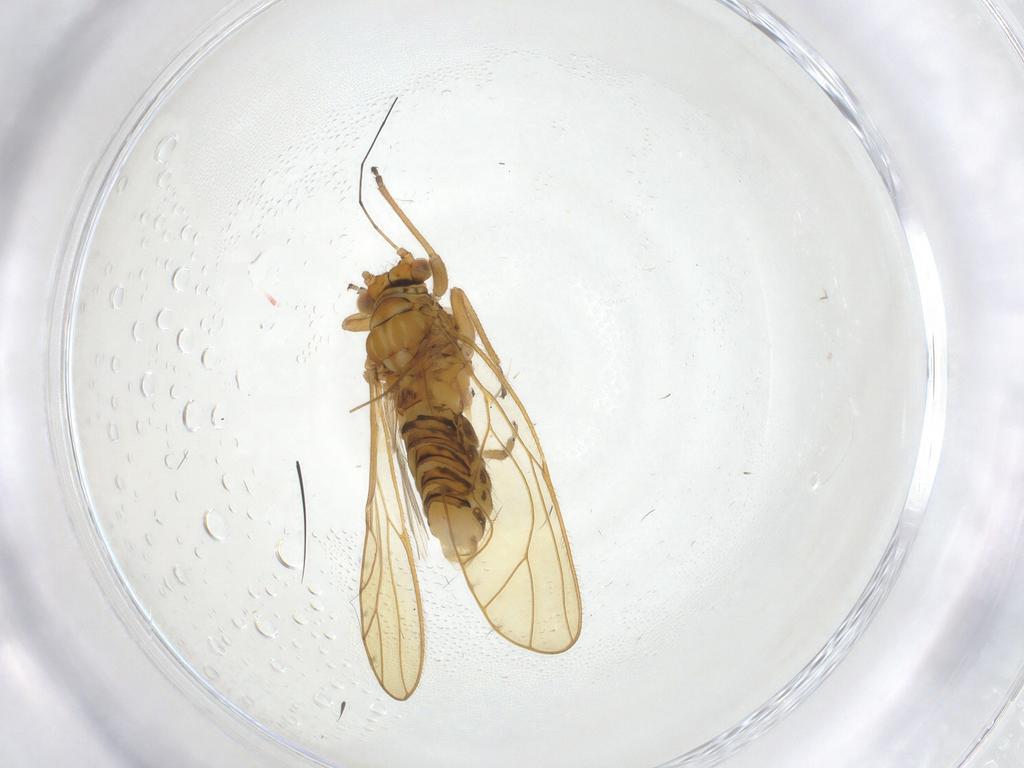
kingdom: Animalia
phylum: Arthropoda
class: Insecta
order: Hemiptera
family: Psyllidae
